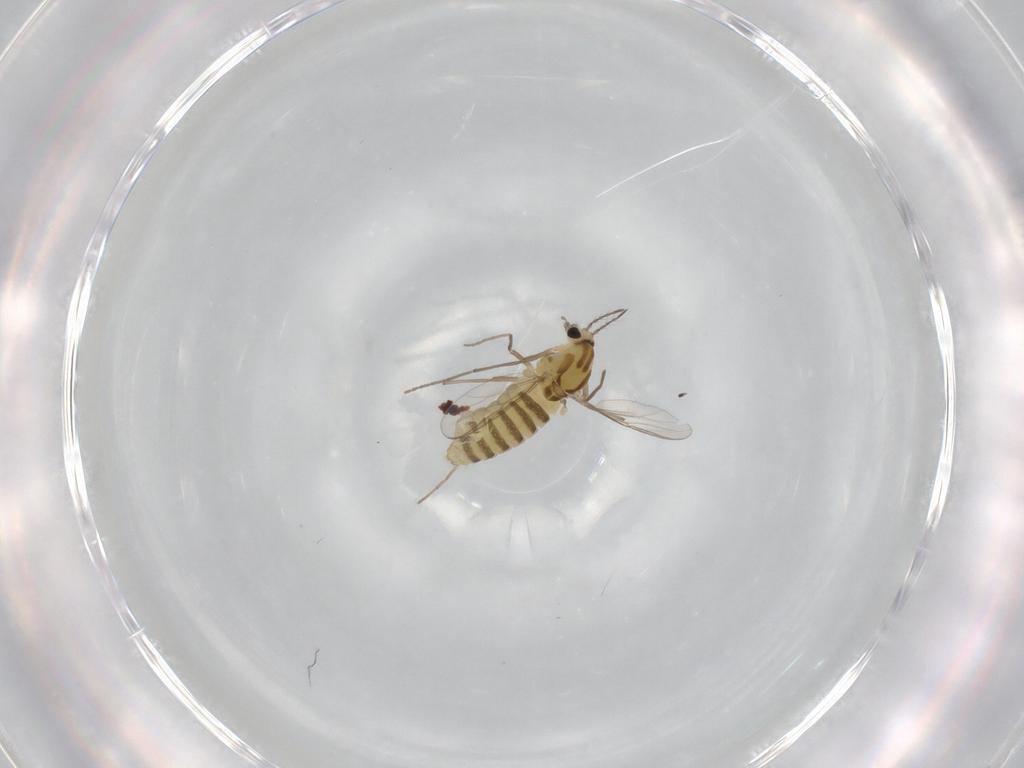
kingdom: Animalia
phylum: Arthropoda
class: Insecta
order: Diptera
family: Chironomidae
